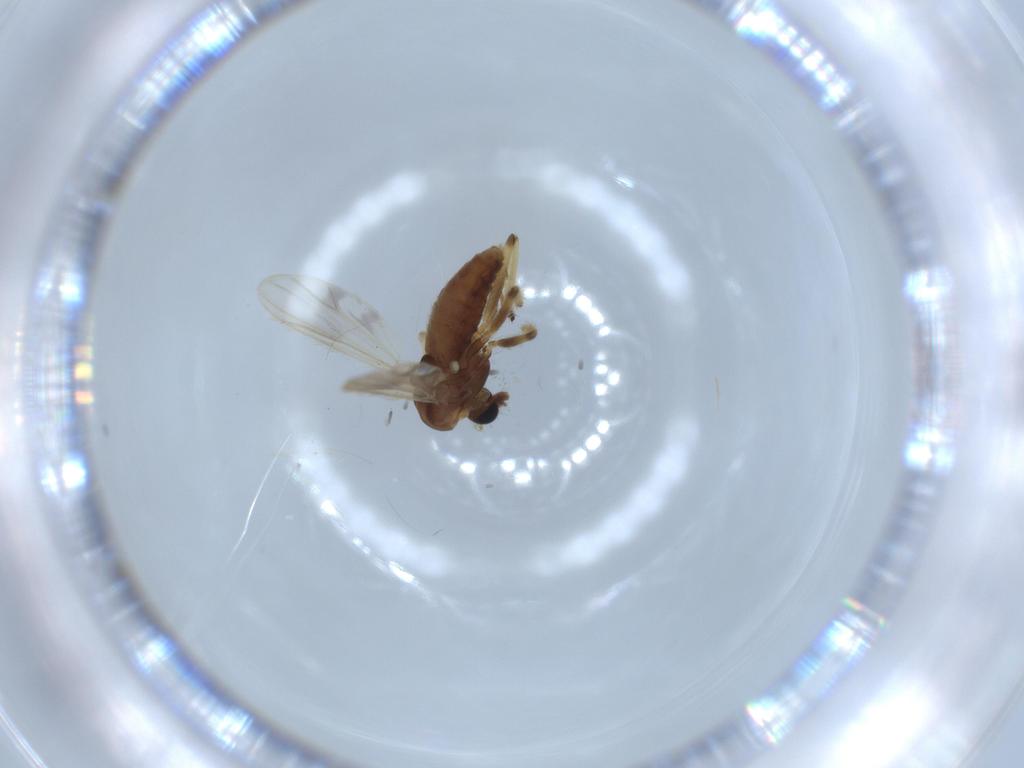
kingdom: Animalia
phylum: Arthropoda
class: Insecta
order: Diptera
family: Chironomidae
